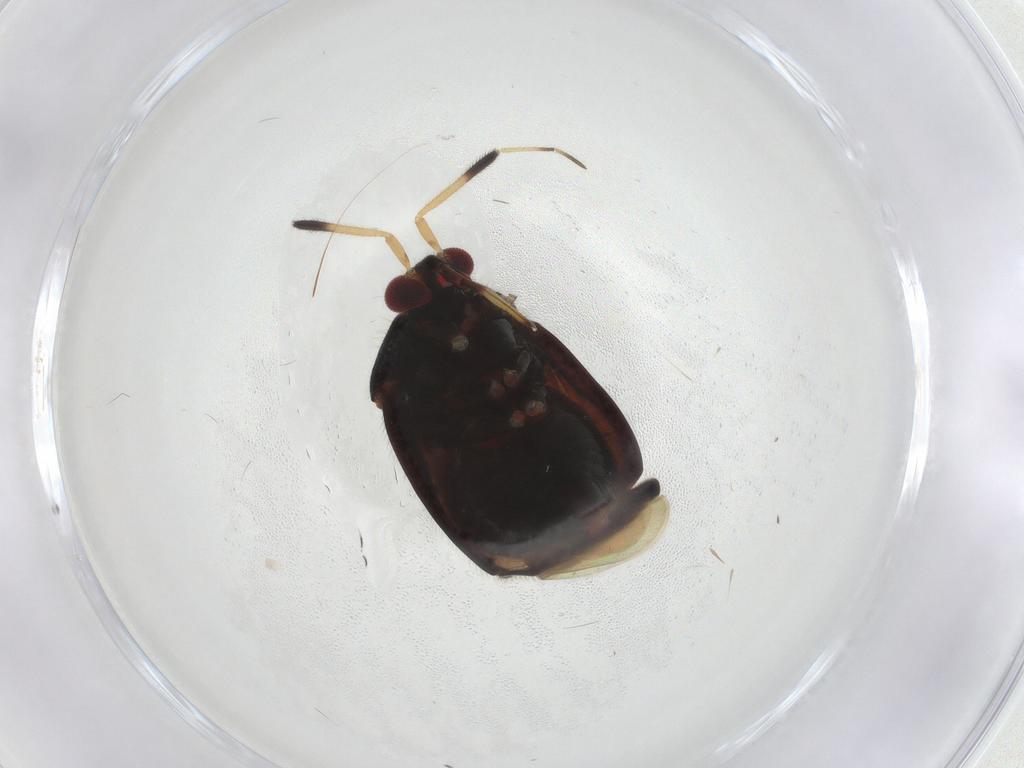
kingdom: Animalia
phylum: Arthropoda
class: Insecta
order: Hemiptera
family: Miridae
